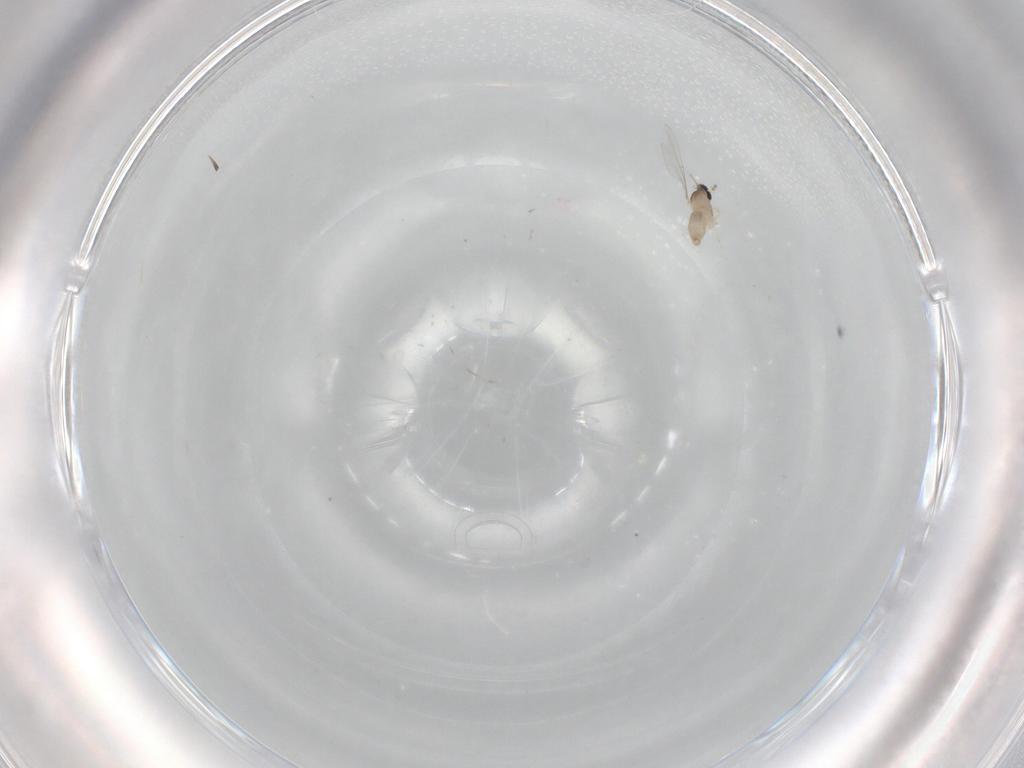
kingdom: Animalia
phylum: Arthropoda
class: Insecta
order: Diptera
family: Cecidomyiidae
